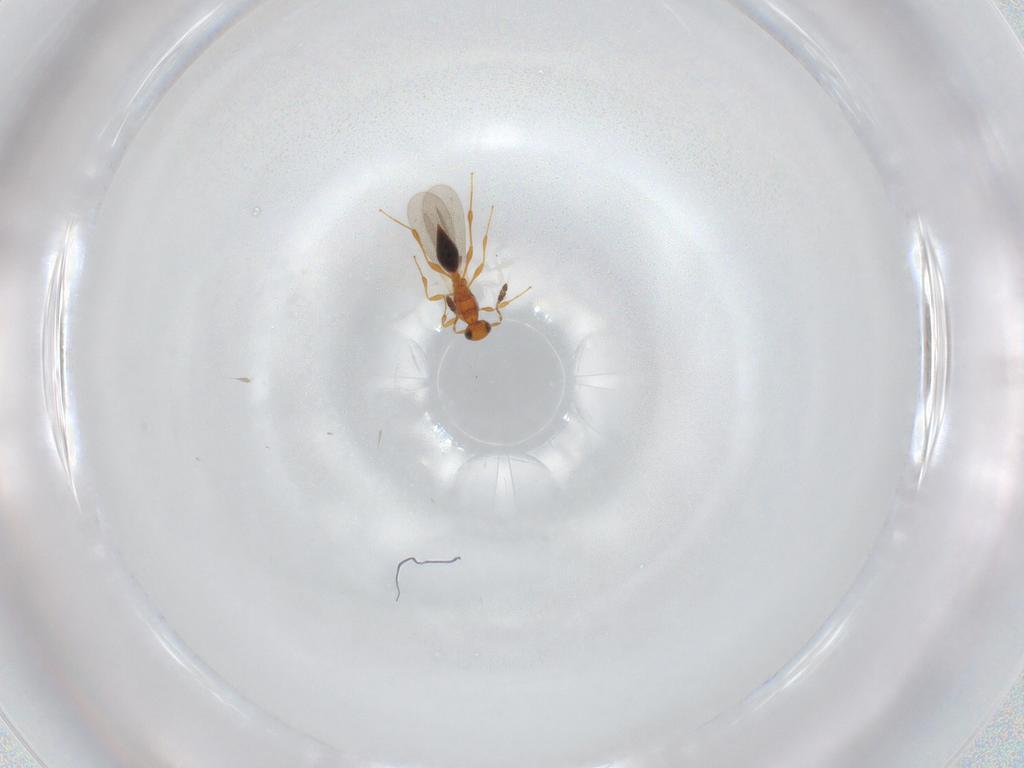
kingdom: Animalia
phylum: Arthropoda
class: Insecta
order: Hymenoptera
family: Platygastridae
